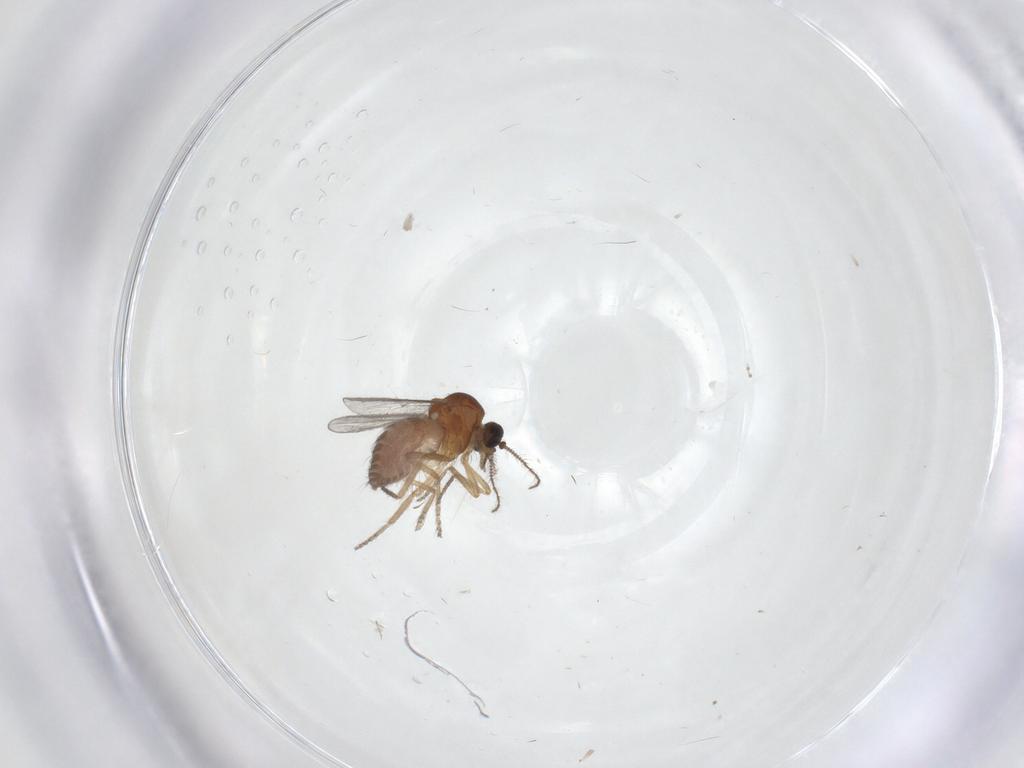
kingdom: Animalia
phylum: Arthropoda
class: Insecta
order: Diptera
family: Ceratopogonidae
